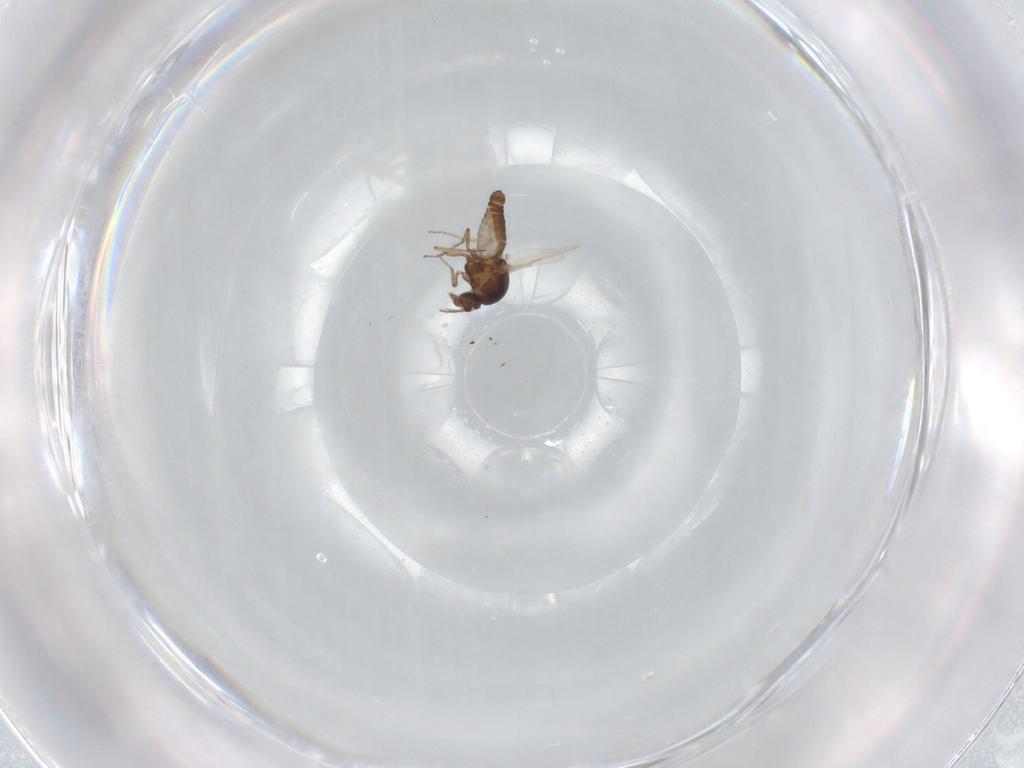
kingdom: Animalia
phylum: Arthropoda
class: Insecta
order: Diptera
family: Ceratopogonidae
